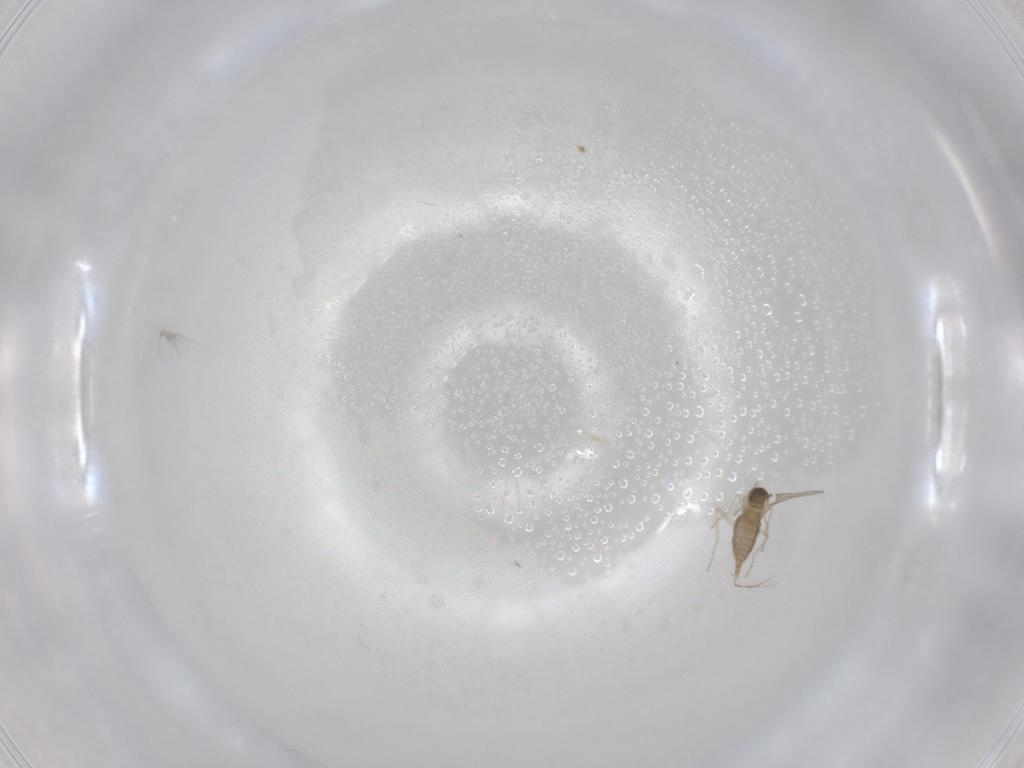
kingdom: Animalia
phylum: Arthropoda
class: Insecta
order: Diptera
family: Cecidomyiidae
